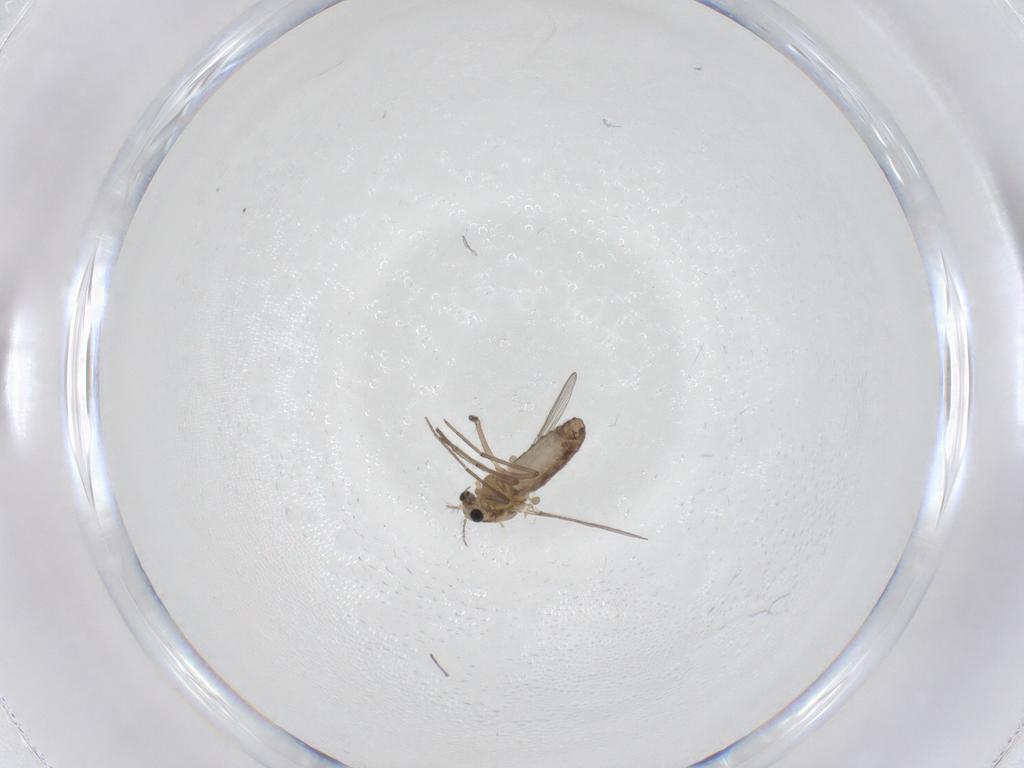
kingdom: Animalia
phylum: Arthropoda
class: Insecta
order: Diptera
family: Chironomidae
